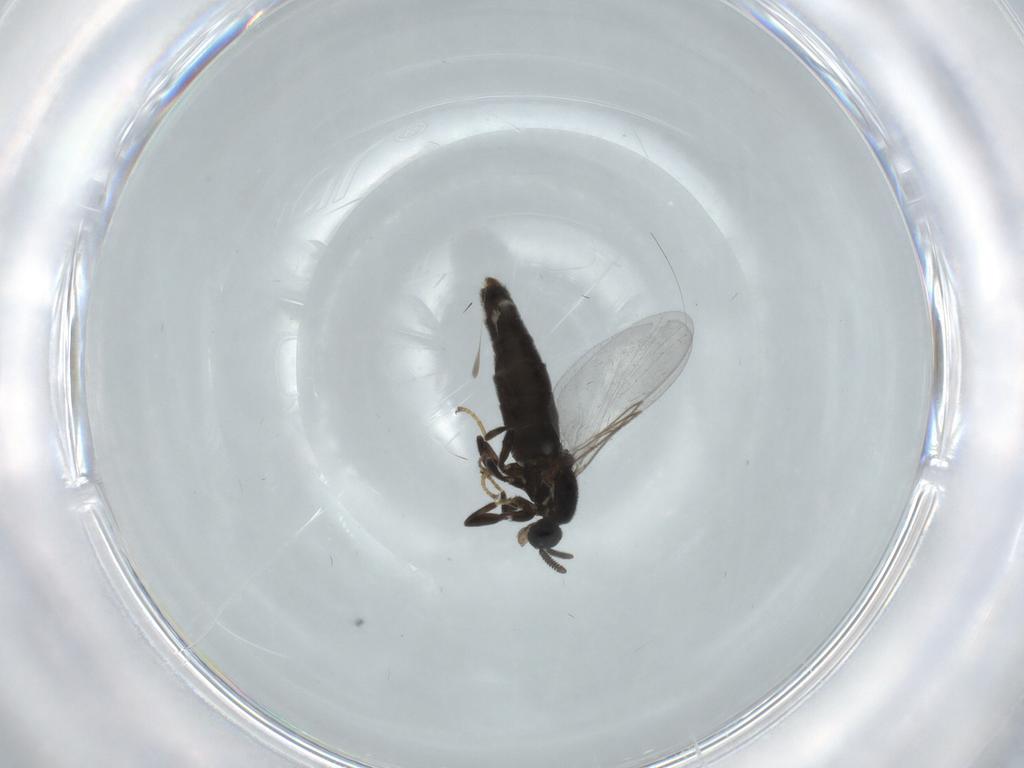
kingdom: Animalia
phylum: Arthropoda
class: Insecta
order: Diptera
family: Scatopsidae
